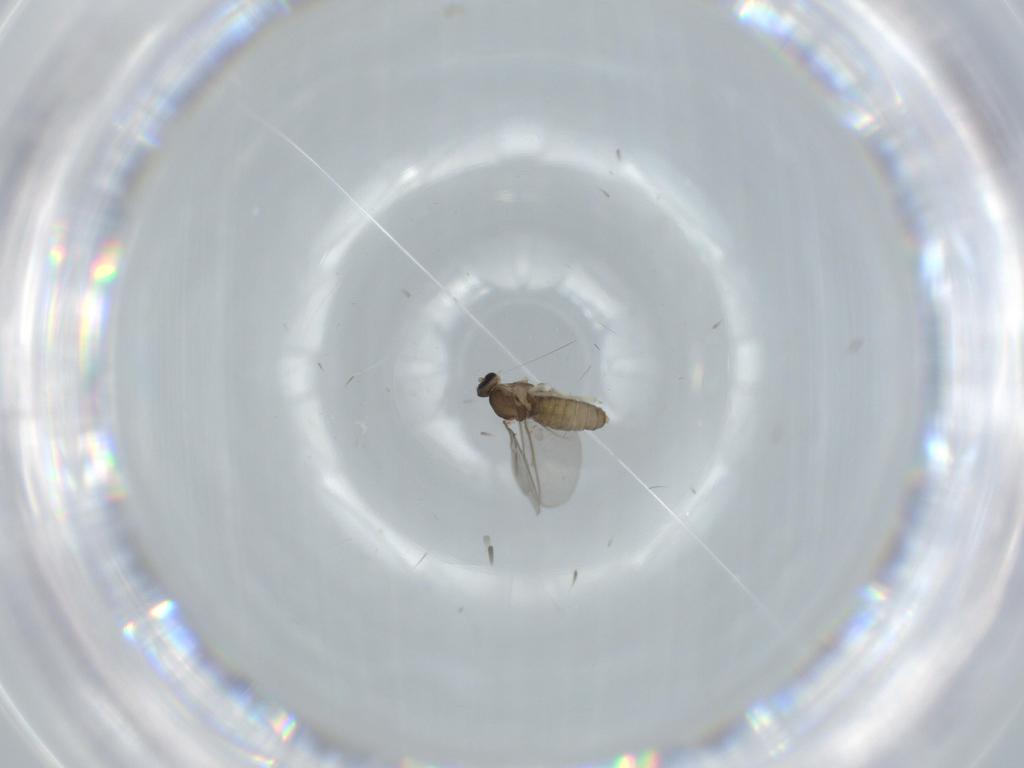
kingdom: Animalia
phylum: Arthropoda
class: Insecta
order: Diptera
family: Cecidomyiidae
